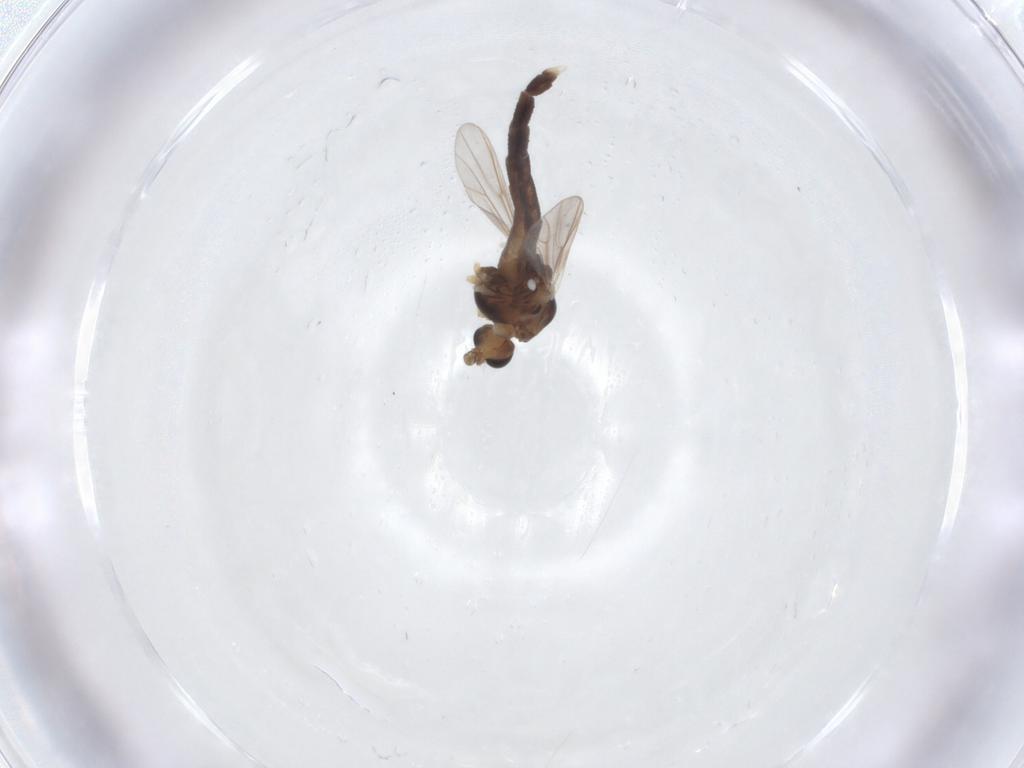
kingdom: Animalia
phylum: Arthropoda
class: Insecta
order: Diptera
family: Chironomidae
